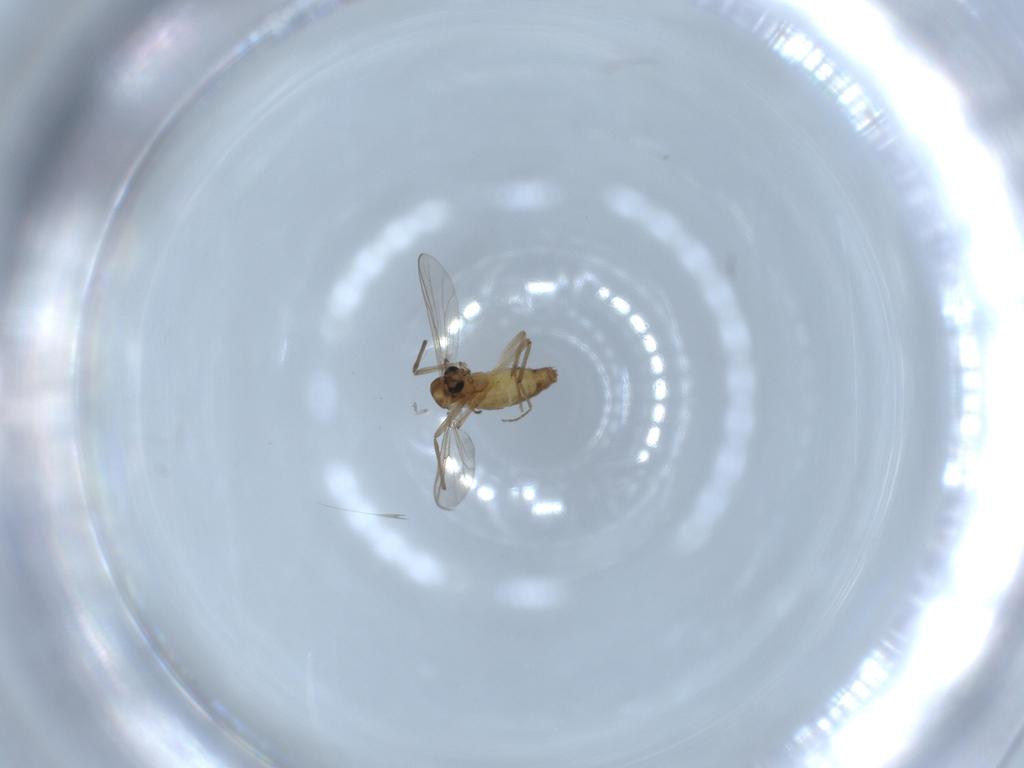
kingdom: Animalia
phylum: Arthropoda
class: Insecta
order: Diptera
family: Chironomidae
